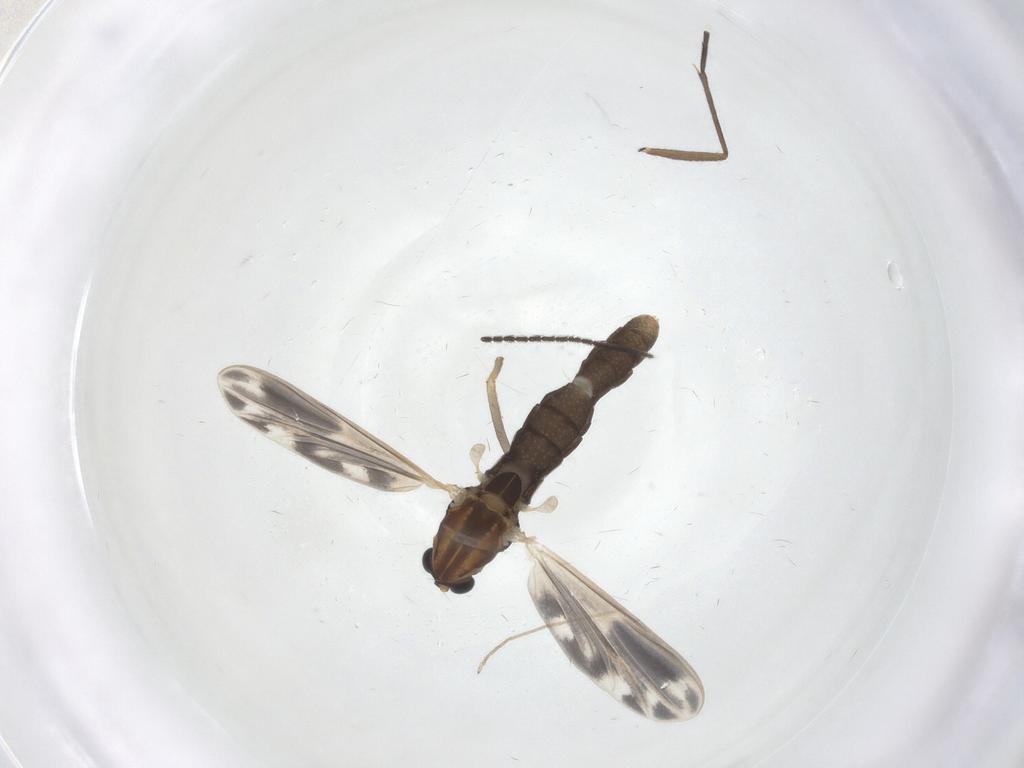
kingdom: Animalia
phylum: Arthropoda
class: Insecta
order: Diptera
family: Chironomidae
